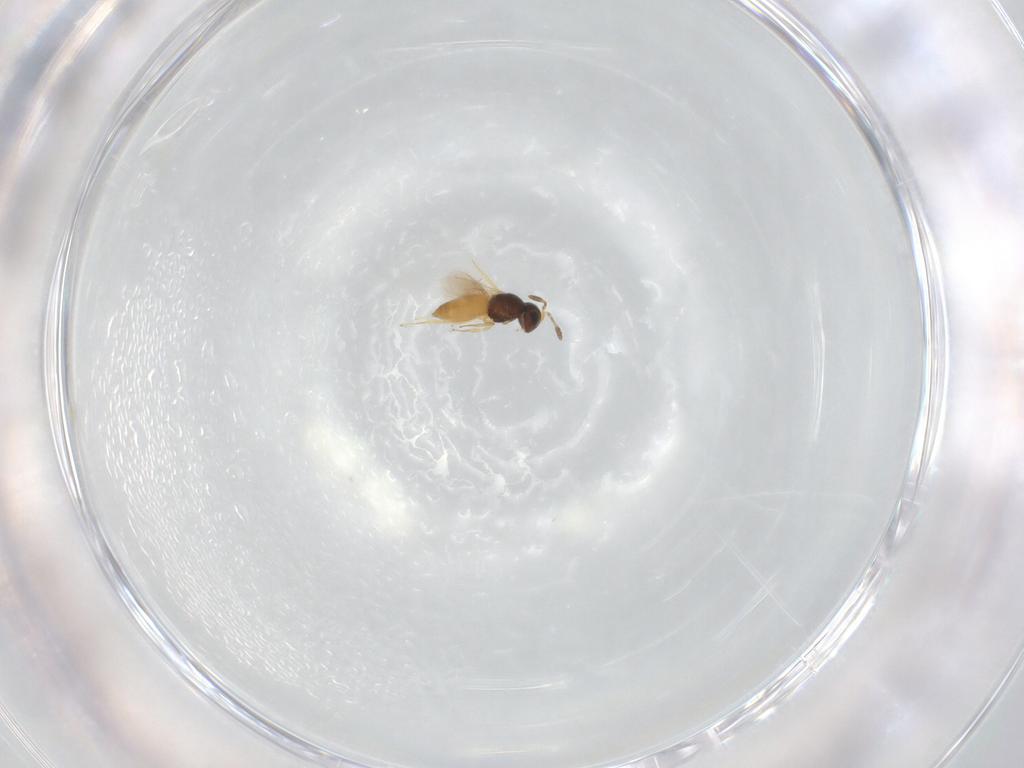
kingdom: Animalia
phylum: Arthropoda
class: Insecta
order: Hymenoptera
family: Scelionidae
